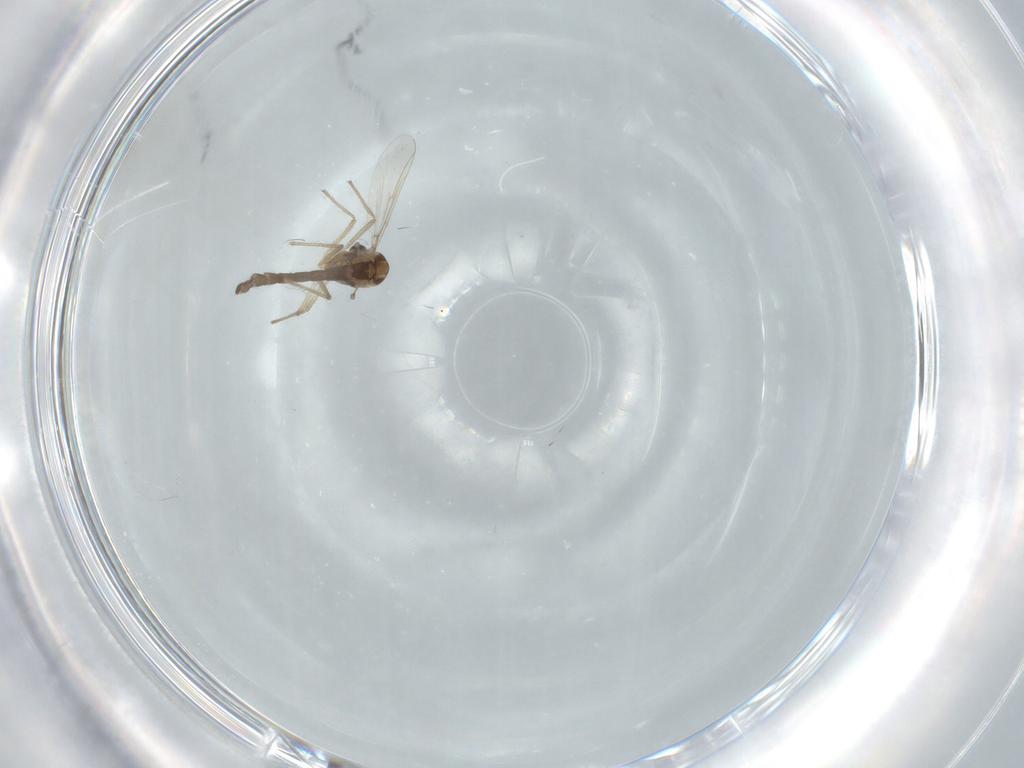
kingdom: Animalia
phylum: Arthropoda
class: Insecta
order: Diptera
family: Chironomidae
